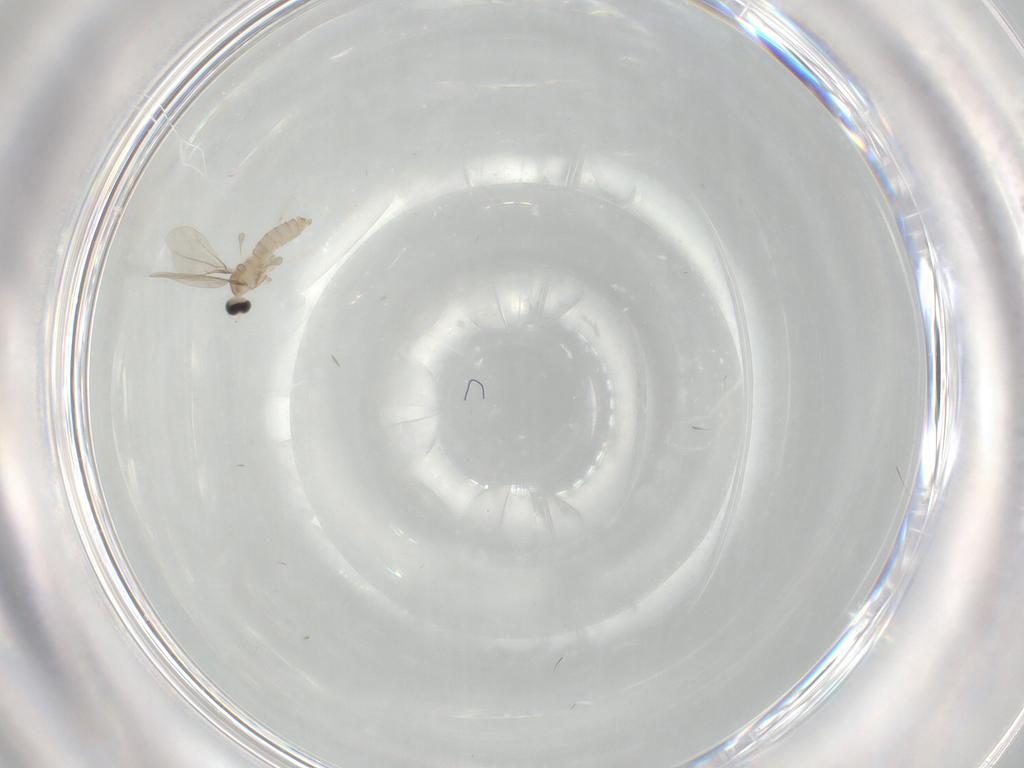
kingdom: Animalia
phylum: Arthropoda
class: Insecta
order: Diptera
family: Cecidomyiidae
